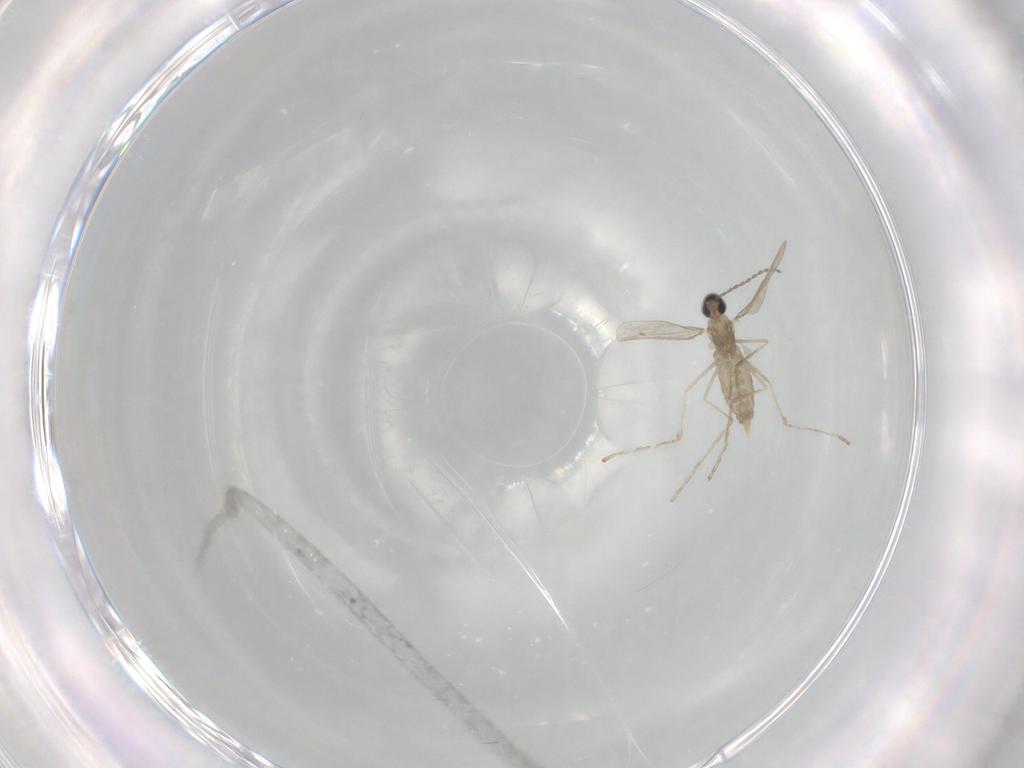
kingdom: Animalia
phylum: Arthropoda
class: Insecta
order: Diptera
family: Cecidomyiidae
